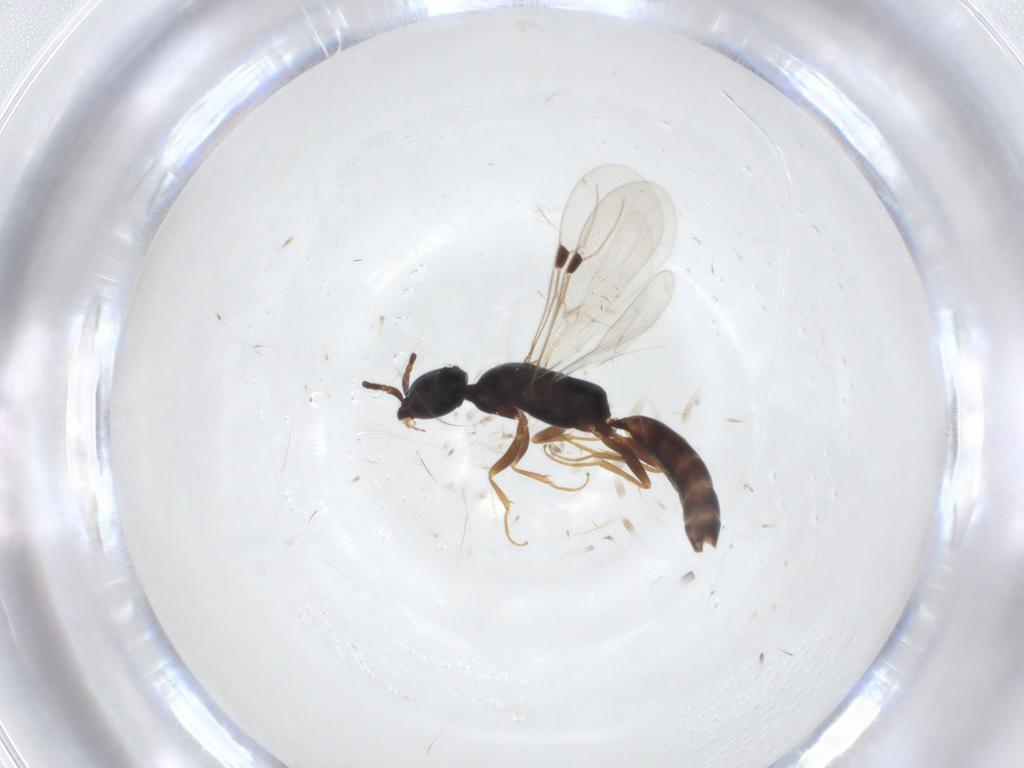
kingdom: Animalia
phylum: Arthropoda
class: Insecta
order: Hymenoptera
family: Bethylidae
